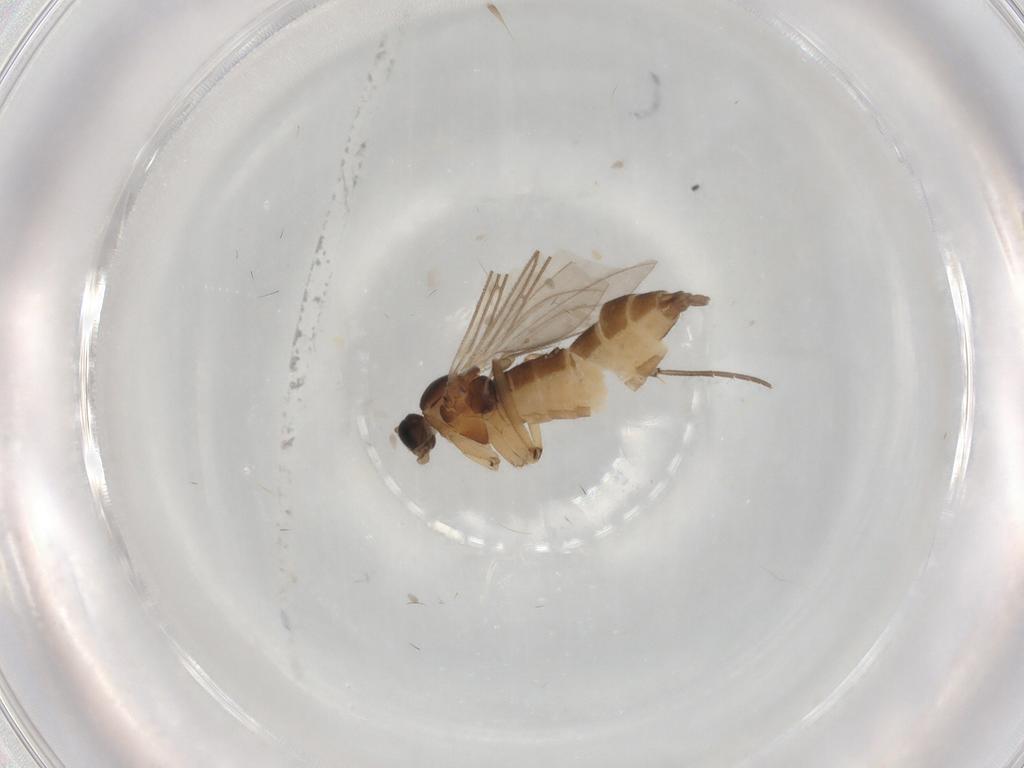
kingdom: Animalia
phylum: Arthropoda
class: Insecta
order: Diptera
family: Sciaridae
